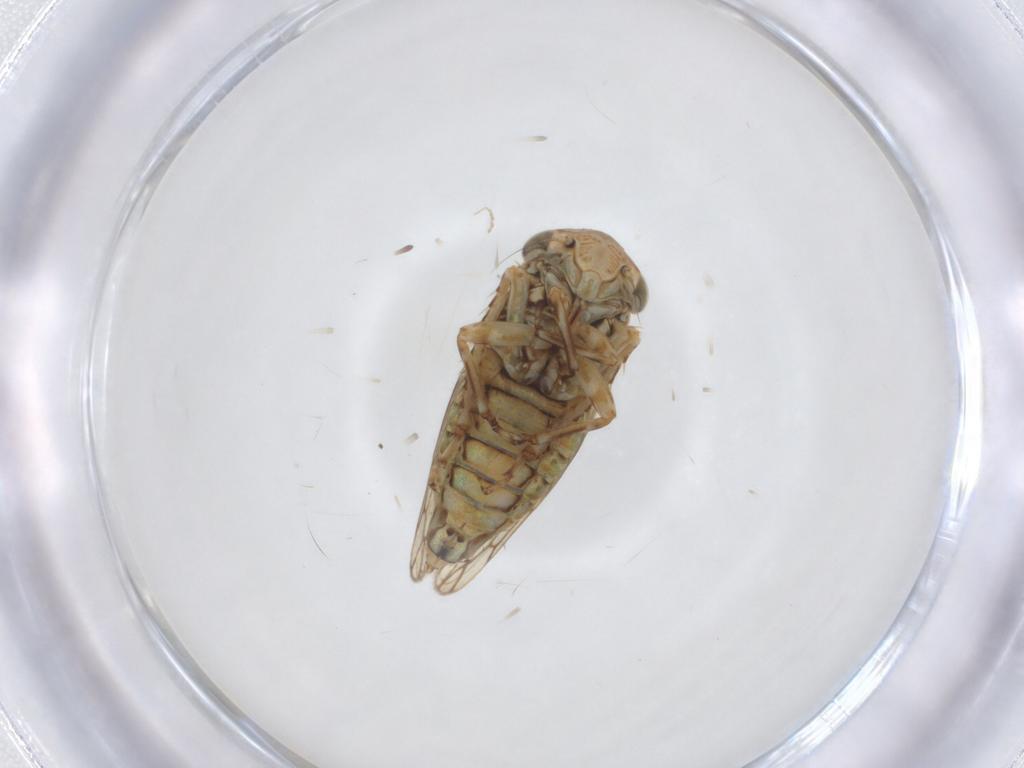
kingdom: Animalia
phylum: Arthropoda
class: Insecta
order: Hemiptera
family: Cicadellidae
